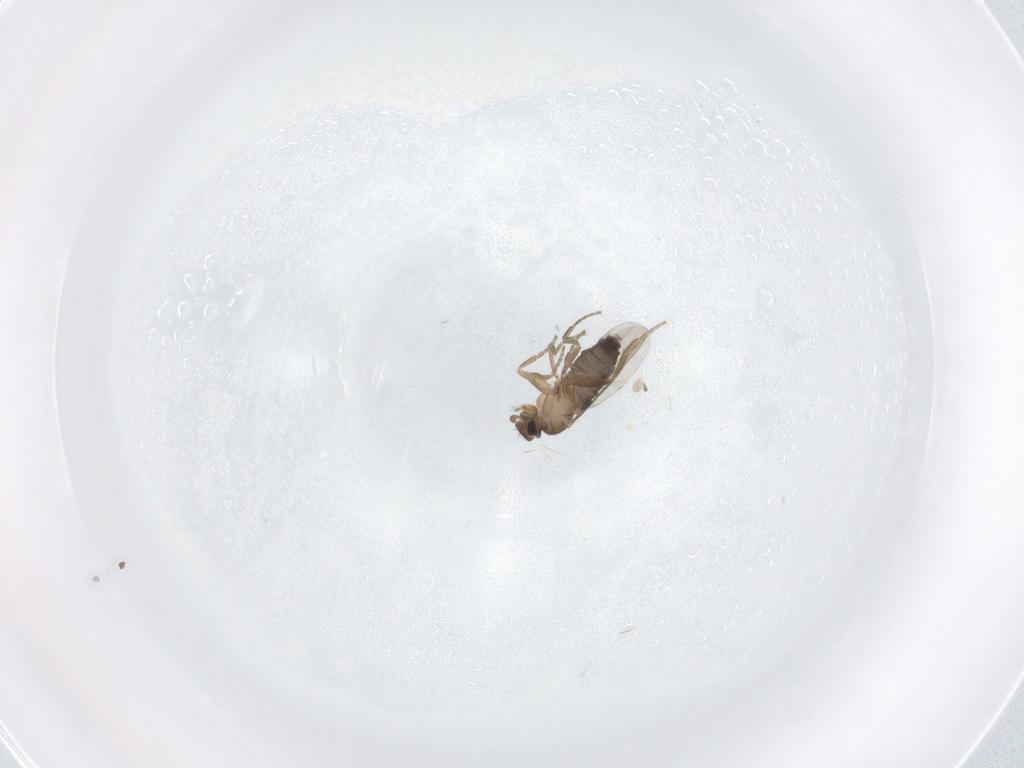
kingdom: Animalia
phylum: Arthropoda
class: Insecta
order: Diptera
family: Phoridae
